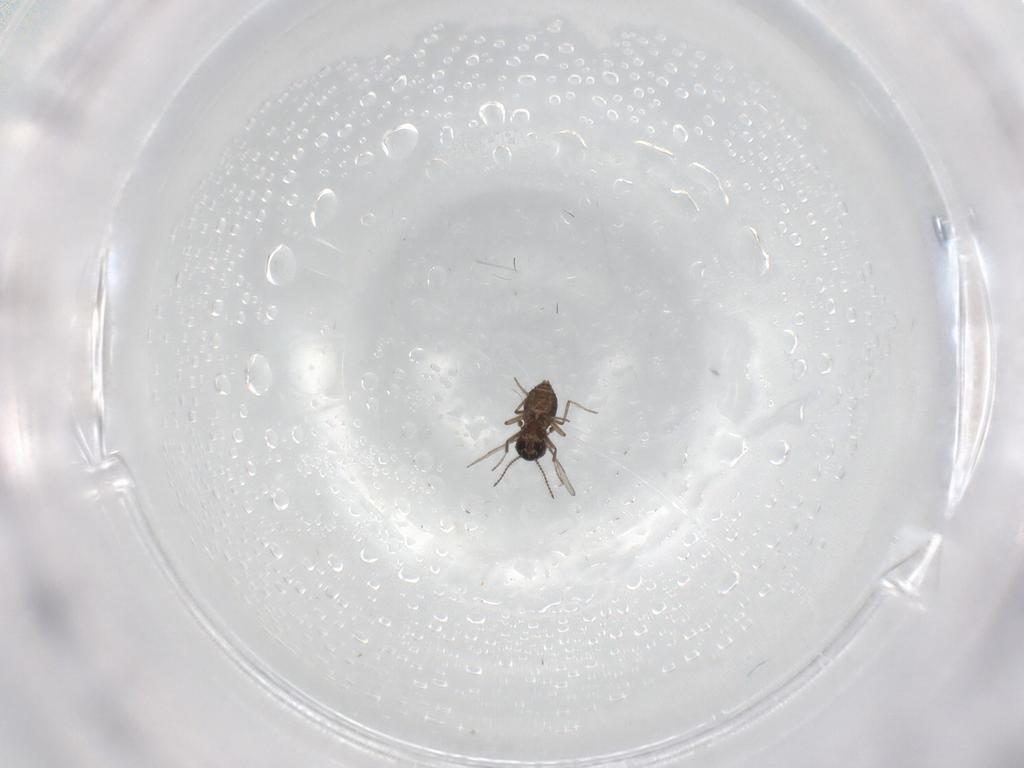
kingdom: Animalia
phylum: Arthropoda
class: Insecta
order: Diptera
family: Ceratopogonidae
